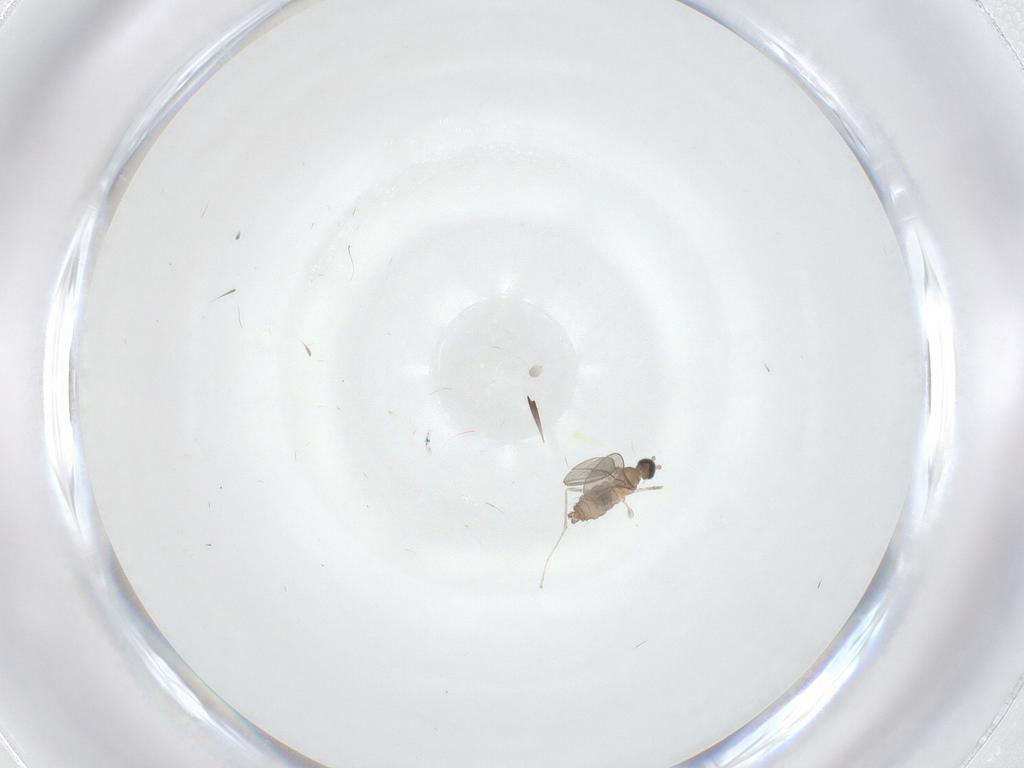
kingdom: Animalia
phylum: Arthropoda
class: Insecta
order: Diptera
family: Cecidomyiidae
